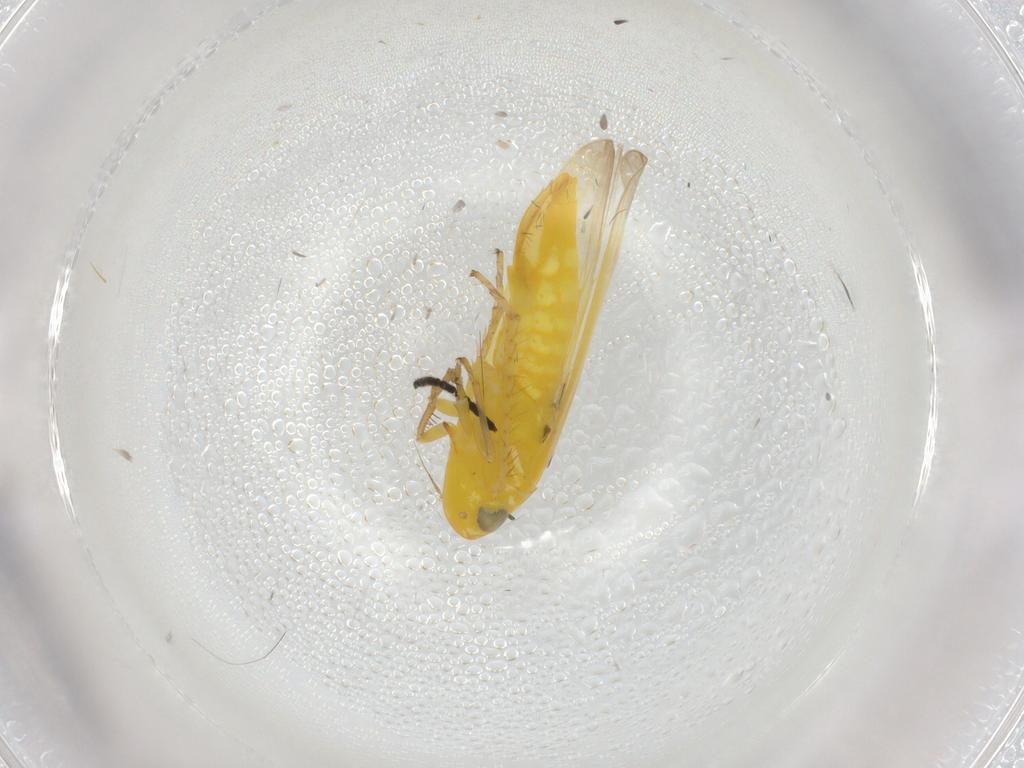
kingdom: Animalia
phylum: Arthropoda
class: Insecta
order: Hemiptera
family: Cicadellidae
